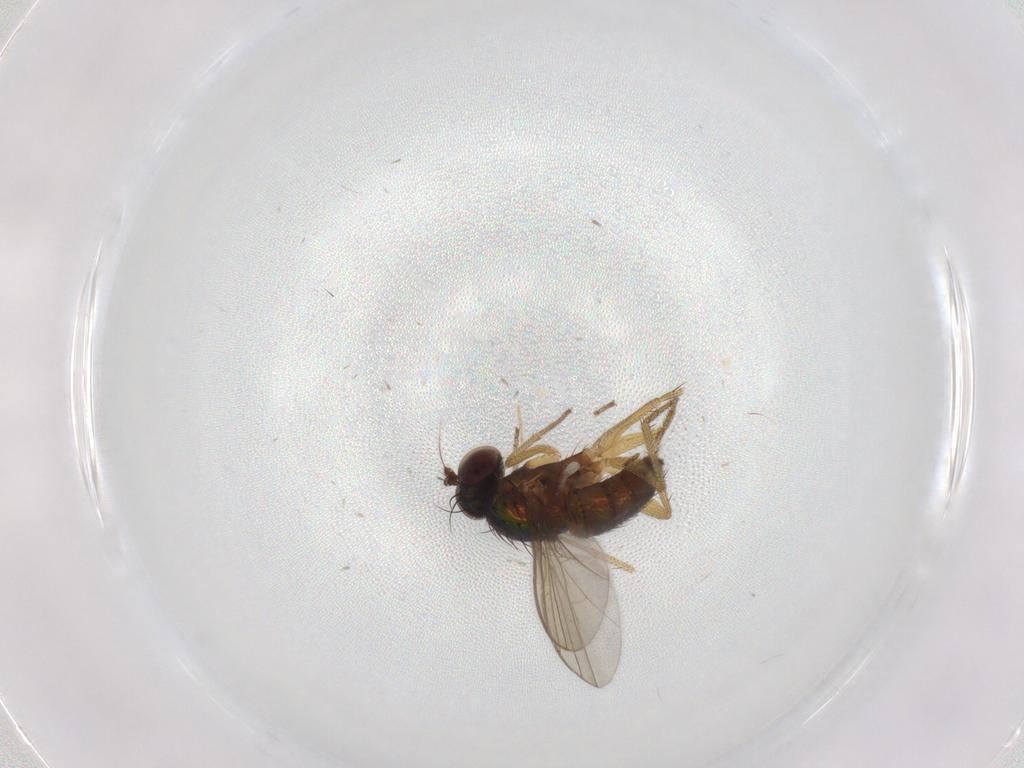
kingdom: Animalia
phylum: Arthropoda
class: Insecta
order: Diptera
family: Dolichopodidae
